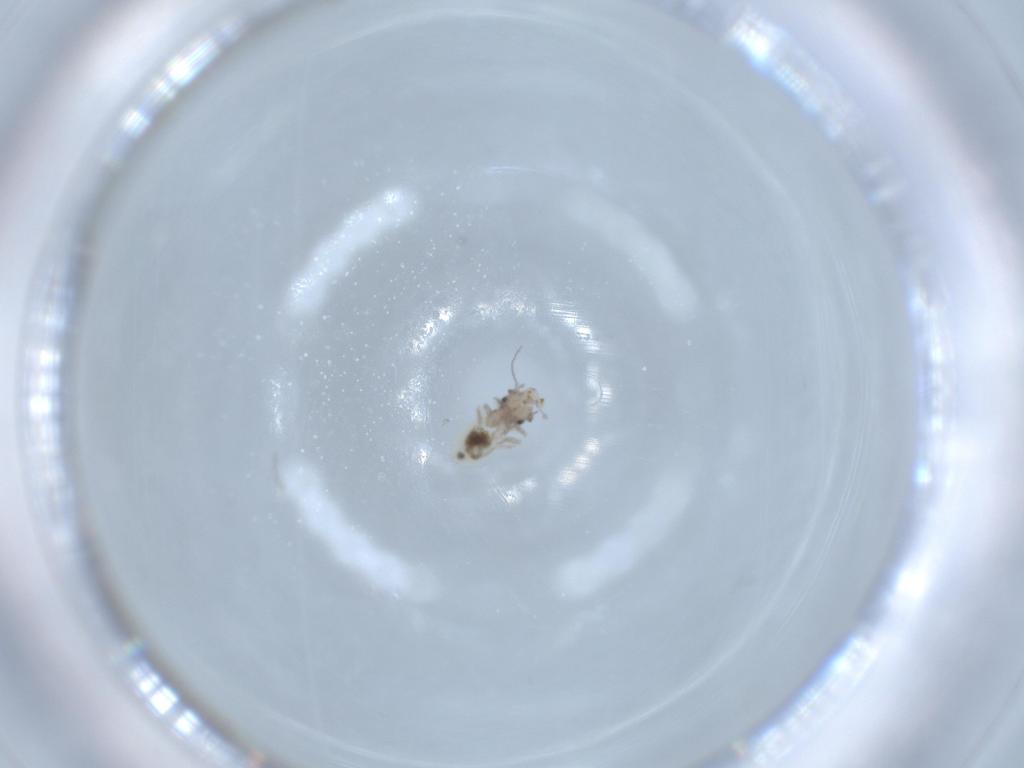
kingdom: Animalia
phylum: Arthropoda
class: Insecta
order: Psocodea
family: Lepidopsocidae
